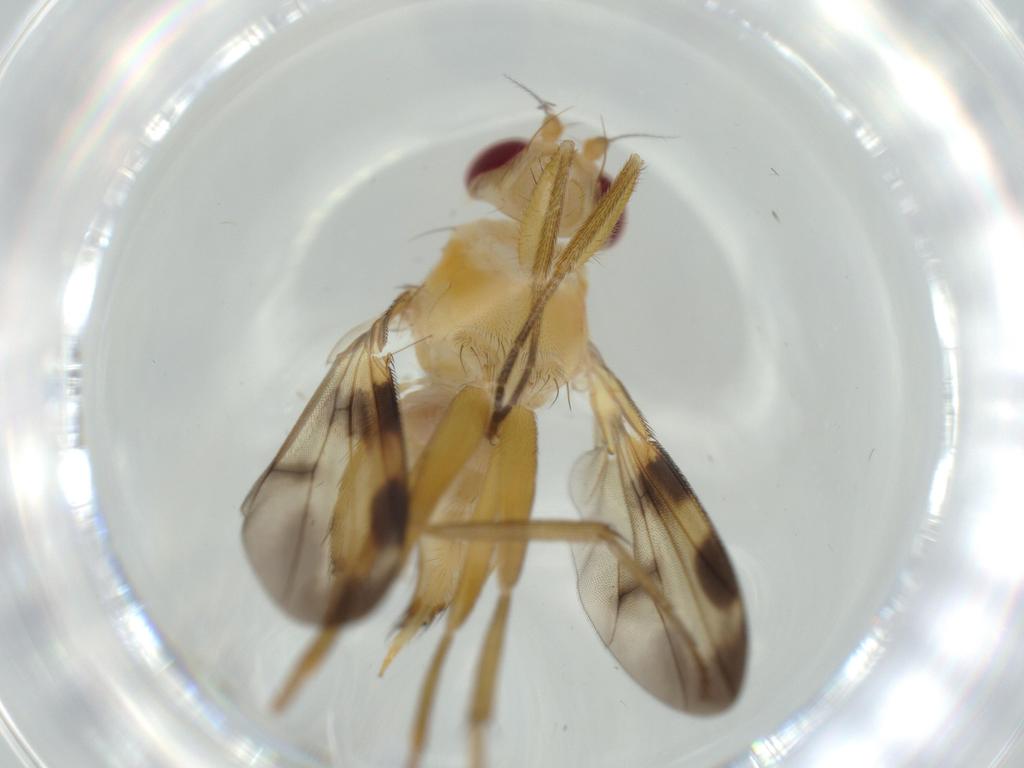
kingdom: Animalia
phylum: Arthropoda
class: Insecta
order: Diptera
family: Clusiidae
